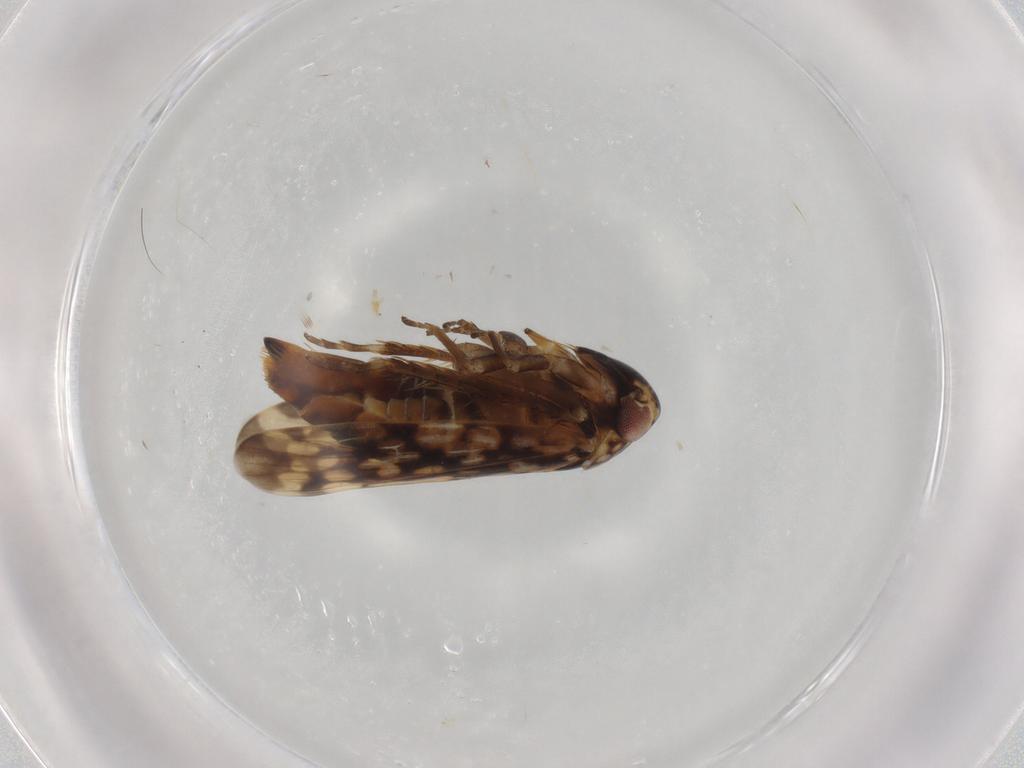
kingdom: Animalia
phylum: Arthropoda
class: Insecta
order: Hemiptera
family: Cicadellidae
